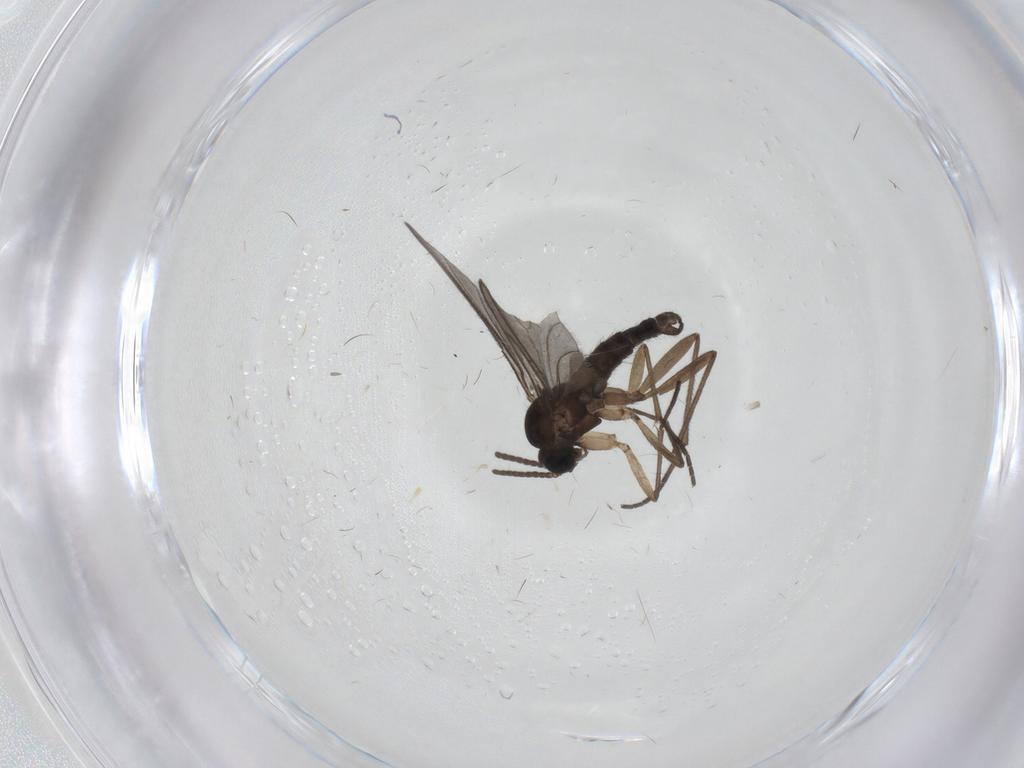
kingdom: Animalia
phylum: Arthropoda
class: Insecta
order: Diptera
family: Sciaridae
